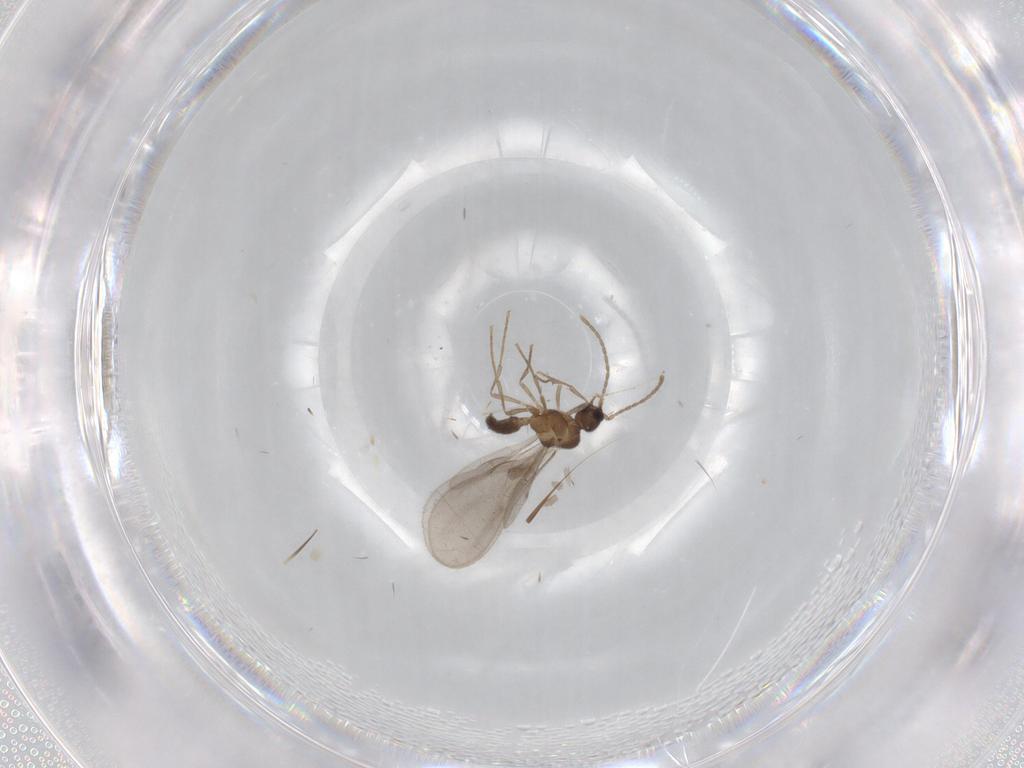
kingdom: Animalia
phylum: Arthropoda
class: Insecta
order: Hymenoptera
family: Formicidae
